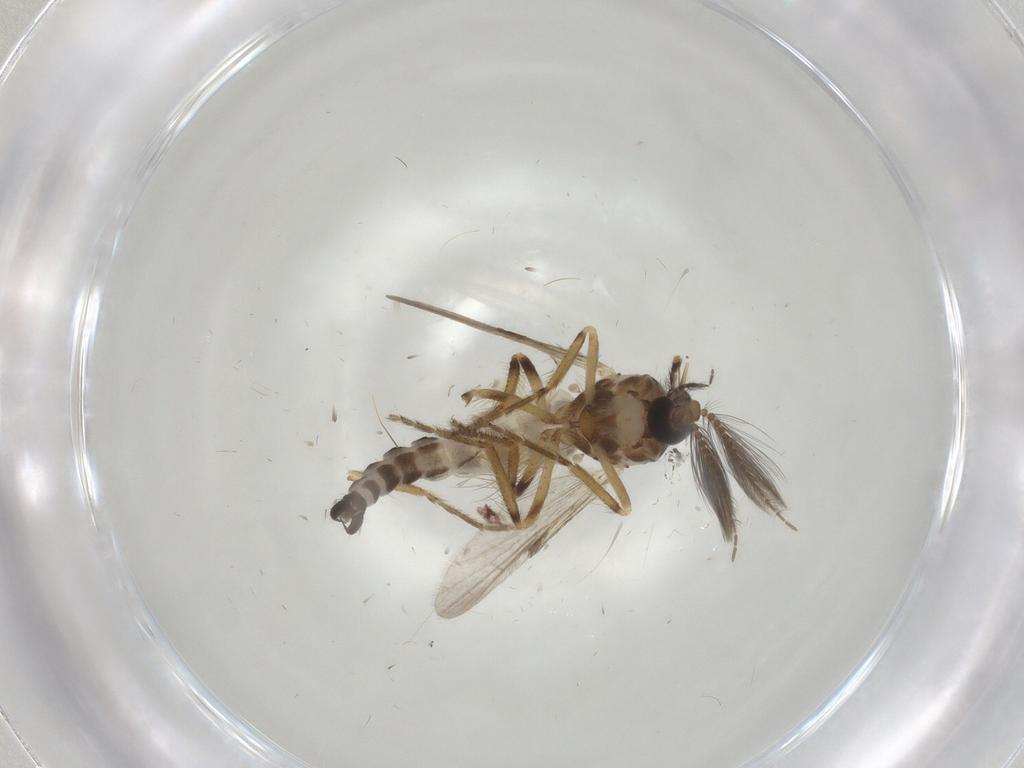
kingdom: Animalia
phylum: Arthropoda
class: Insecta
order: Diptera
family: Ceratopogonidae
